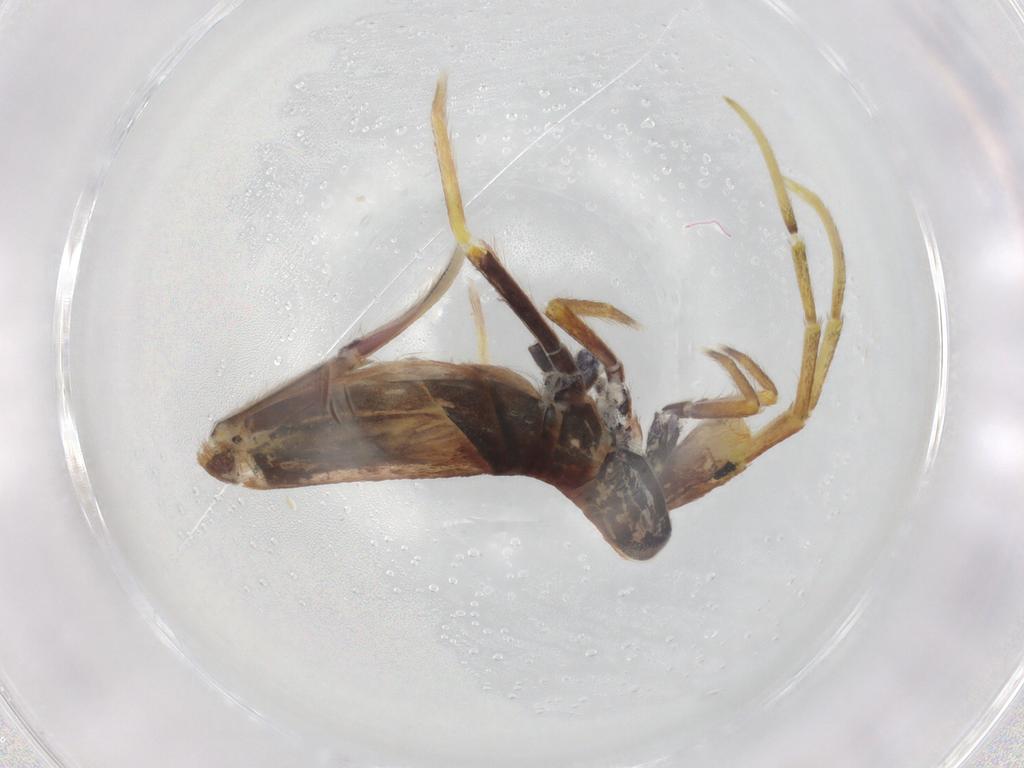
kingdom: Animalia
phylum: Arthropoda
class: Collembola
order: Entomobryomorpha
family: Entomobryidae
